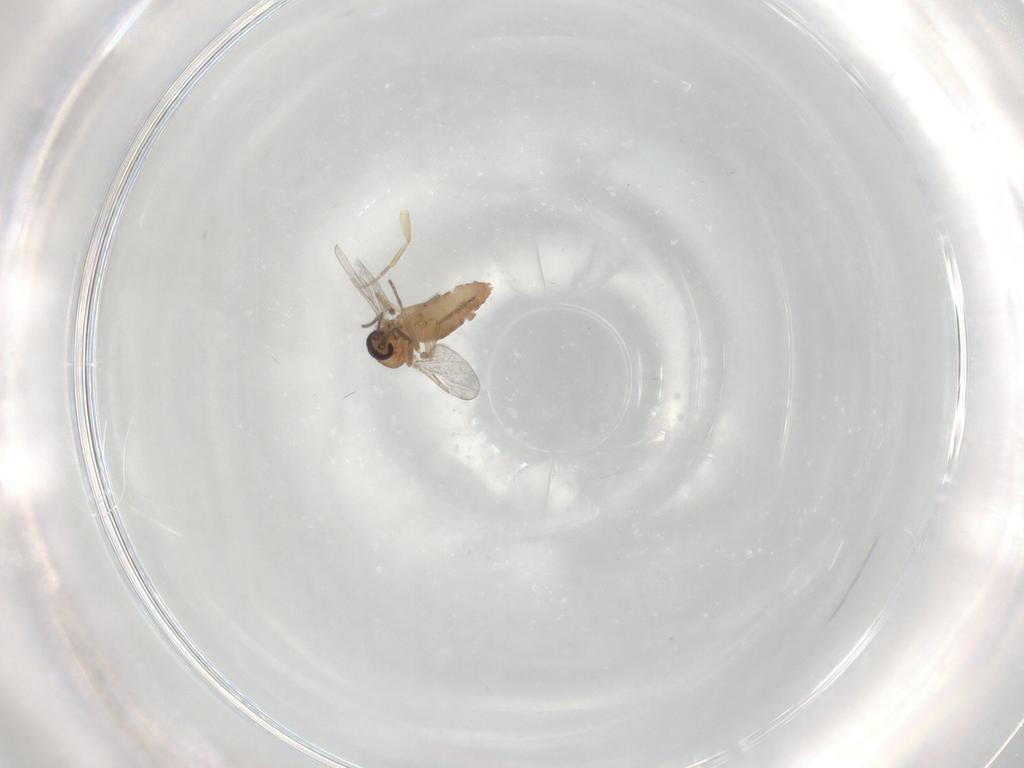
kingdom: Animalia
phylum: Arthropoda
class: Insecta
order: Diptera
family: Ceratopogonidae
